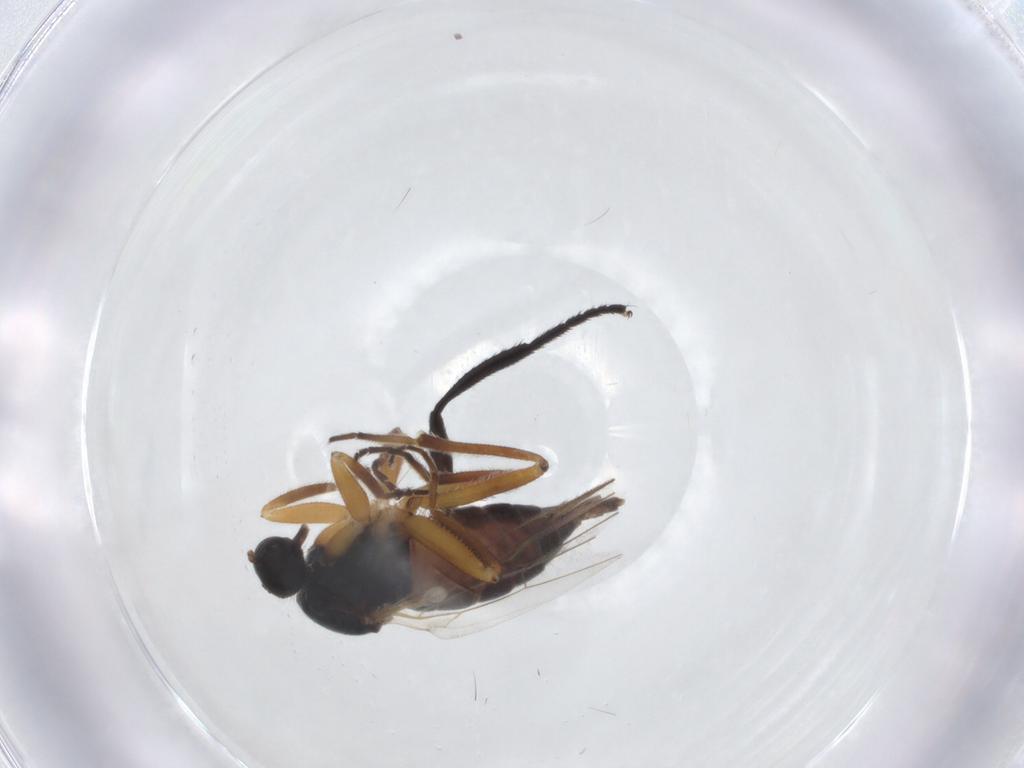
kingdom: Animalia
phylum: Arthropoda
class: Insecta
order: Diptera
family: Hybotidae
